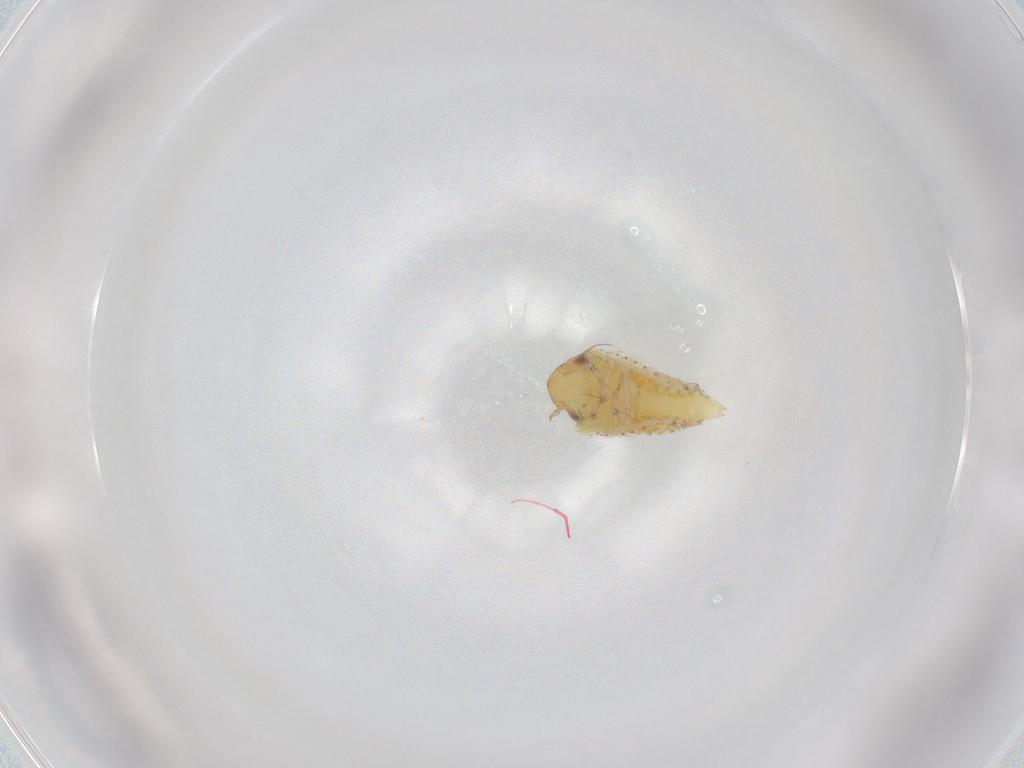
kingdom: Animalia
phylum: Arthropoda
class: Insecta
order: Hemiptera
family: Cicadellidae
